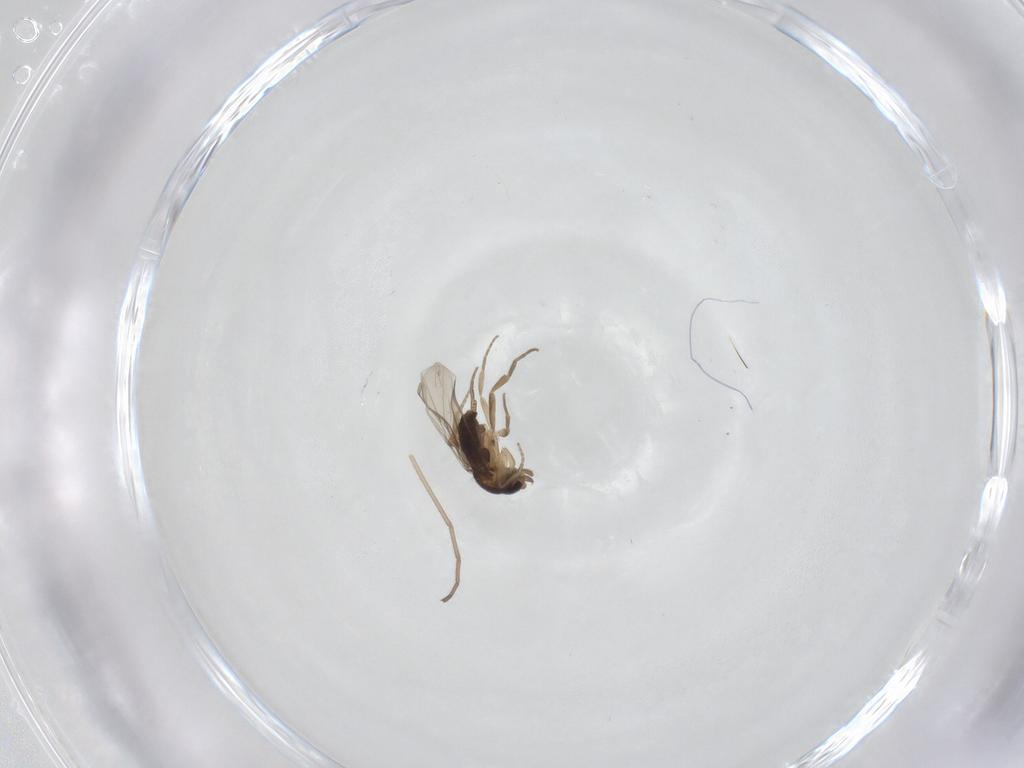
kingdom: Animalia
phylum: Arthropoda
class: Insecta
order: Diptera
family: Cecidomyiidae
